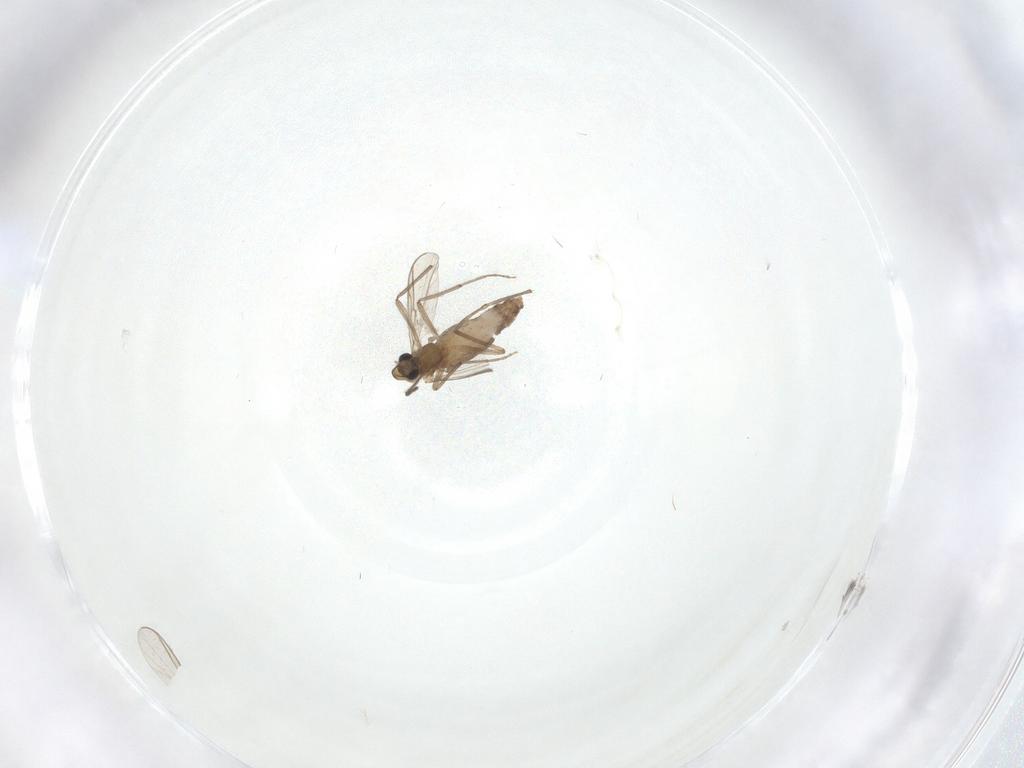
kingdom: Animalia
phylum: Arthropoda
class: Insecta
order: Diptera
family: Chironomidae
